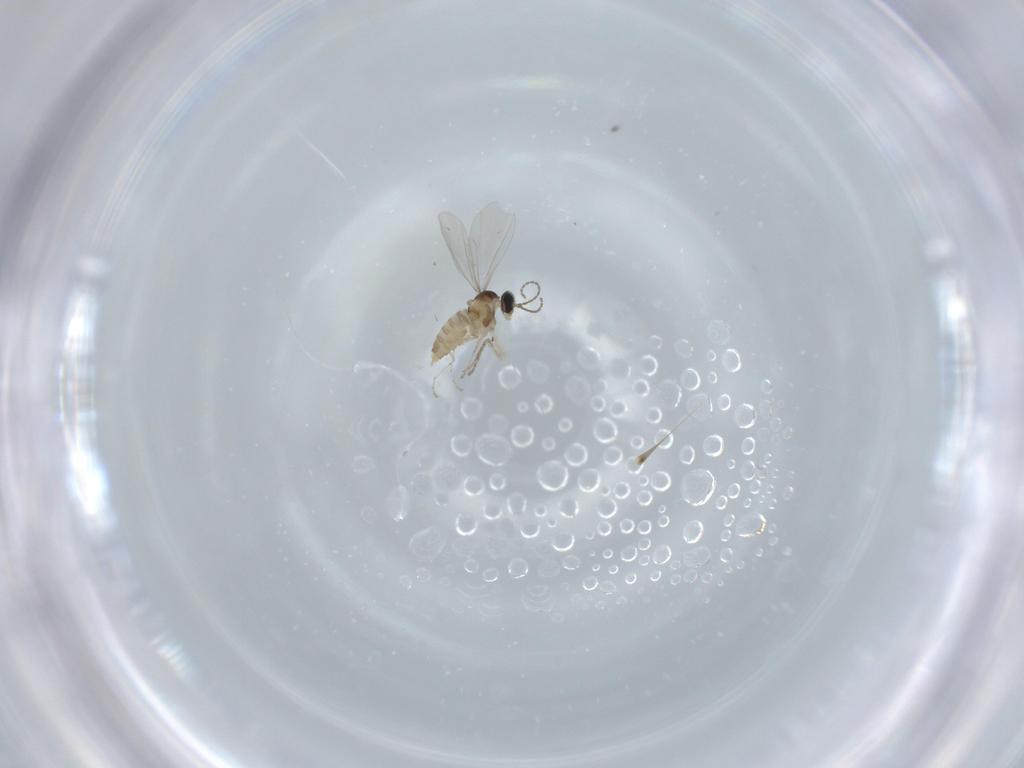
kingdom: Animalia
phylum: Arthropoda
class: Insecta
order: Diptera
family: Cecidomyiidae
